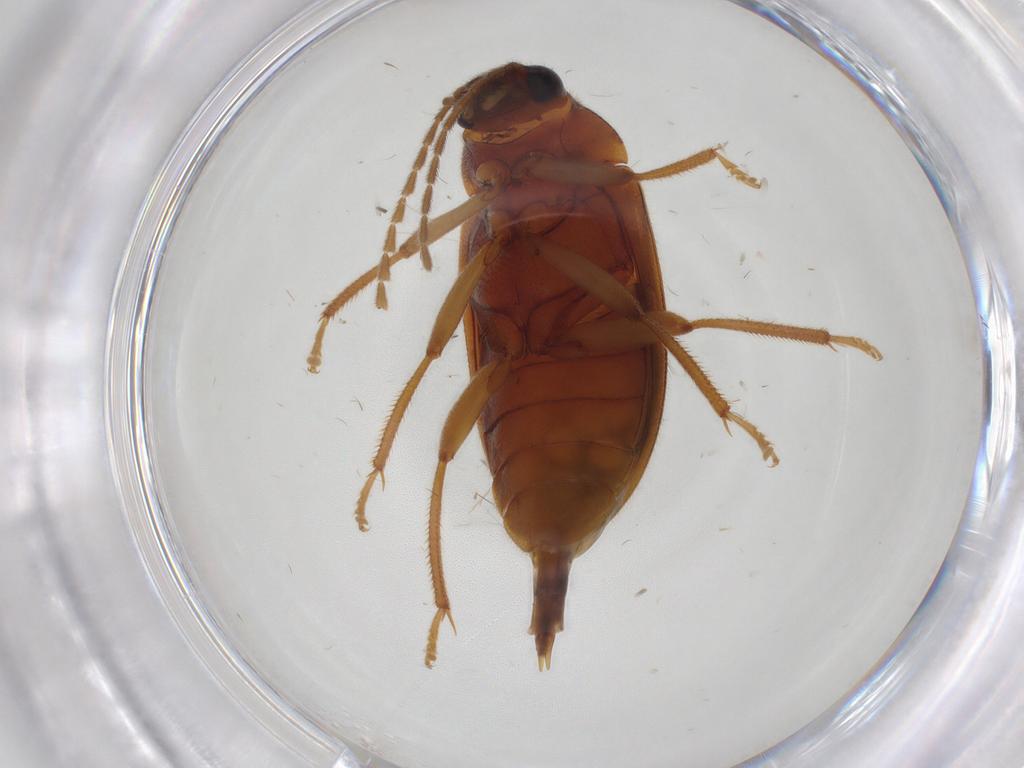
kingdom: Animalia
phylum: Arthropoda
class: Insecta
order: Coleoptera
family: Ptilodactylidae
